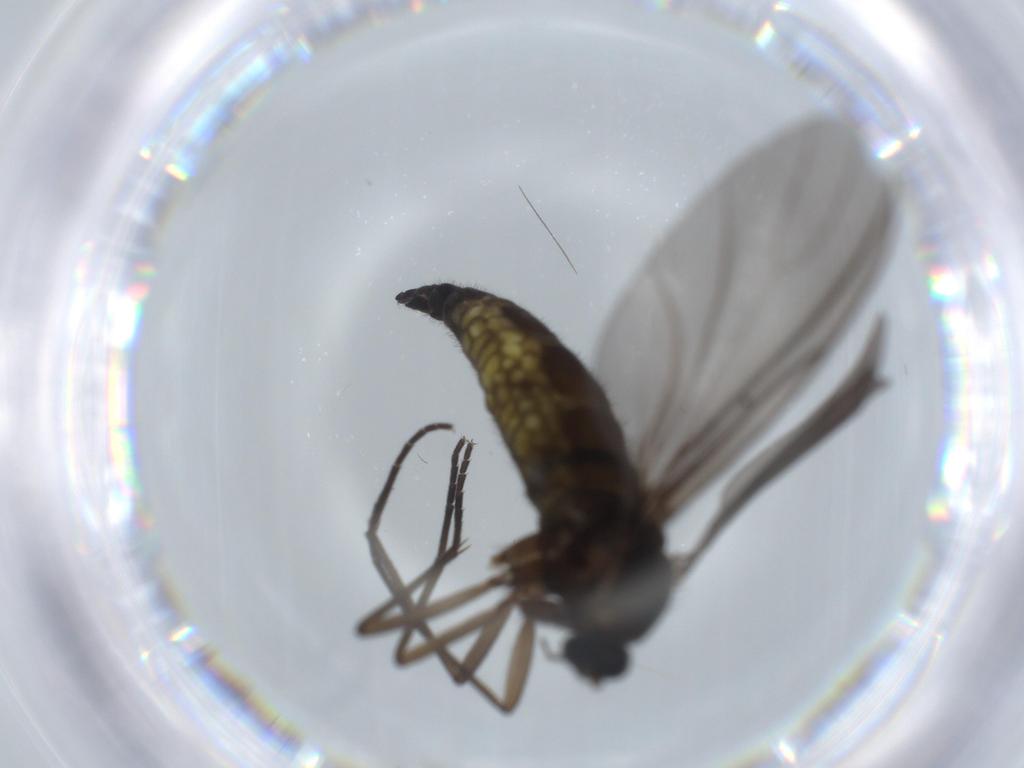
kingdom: Animalia
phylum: Arthropoda
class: Insecta
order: Diptera
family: Sciaridae
